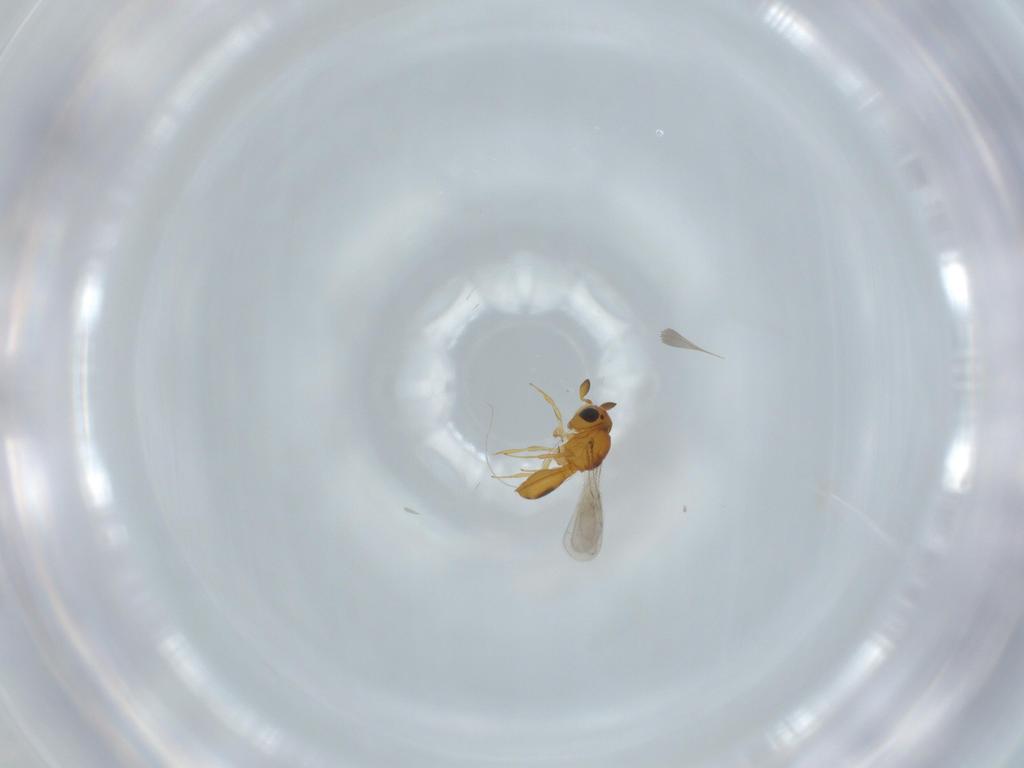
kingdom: Animalia
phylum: Arthropoda
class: Insecta
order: Hymenoptera
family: Scelionidae
